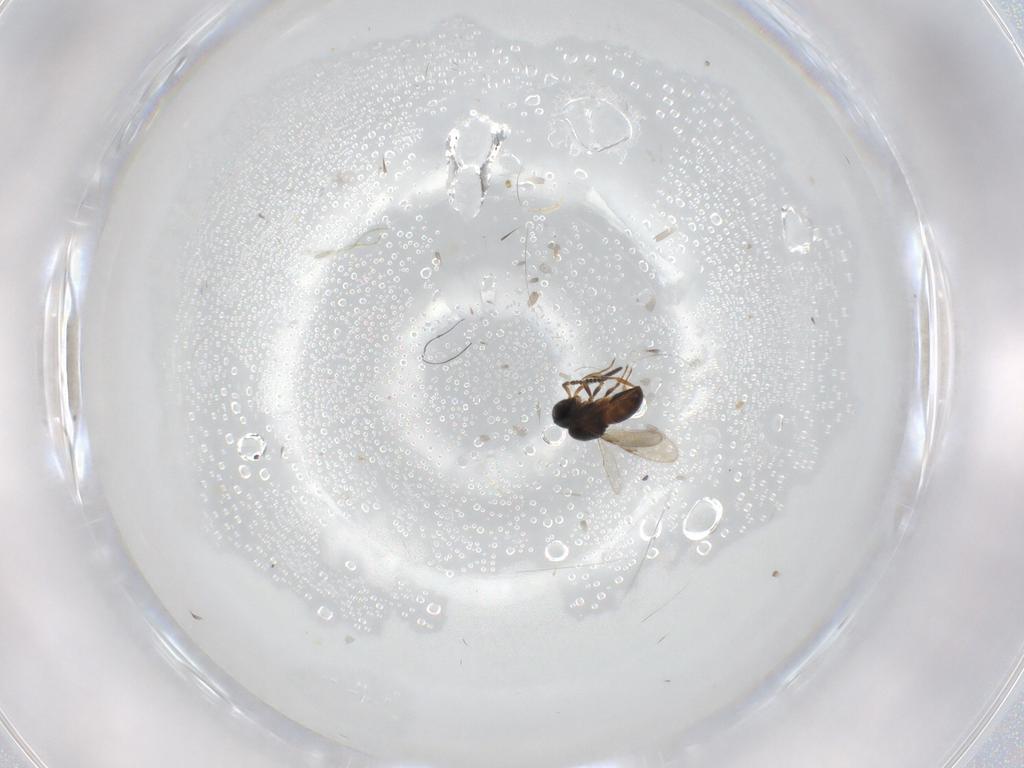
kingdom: Animalia
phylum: Arthropoda
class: Insecta
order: Hymenoptera
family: Scelionidae
